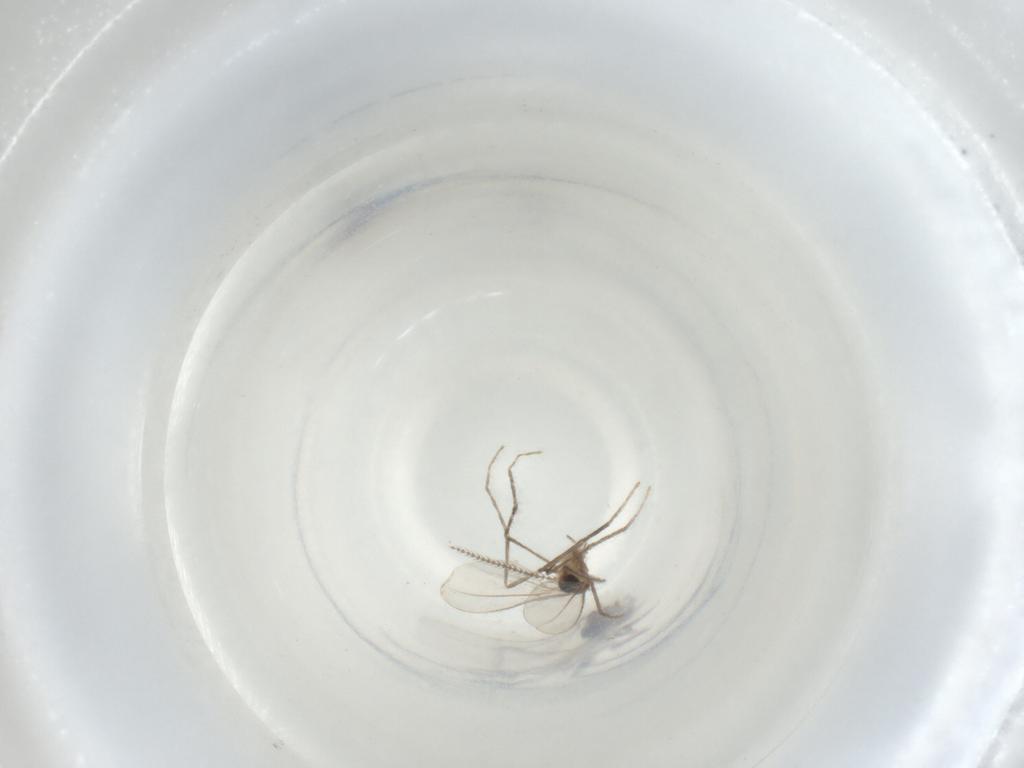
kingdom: Animalia
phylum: Arthropoda
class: Insecta
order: Diptera
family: Cecidomyiidae
